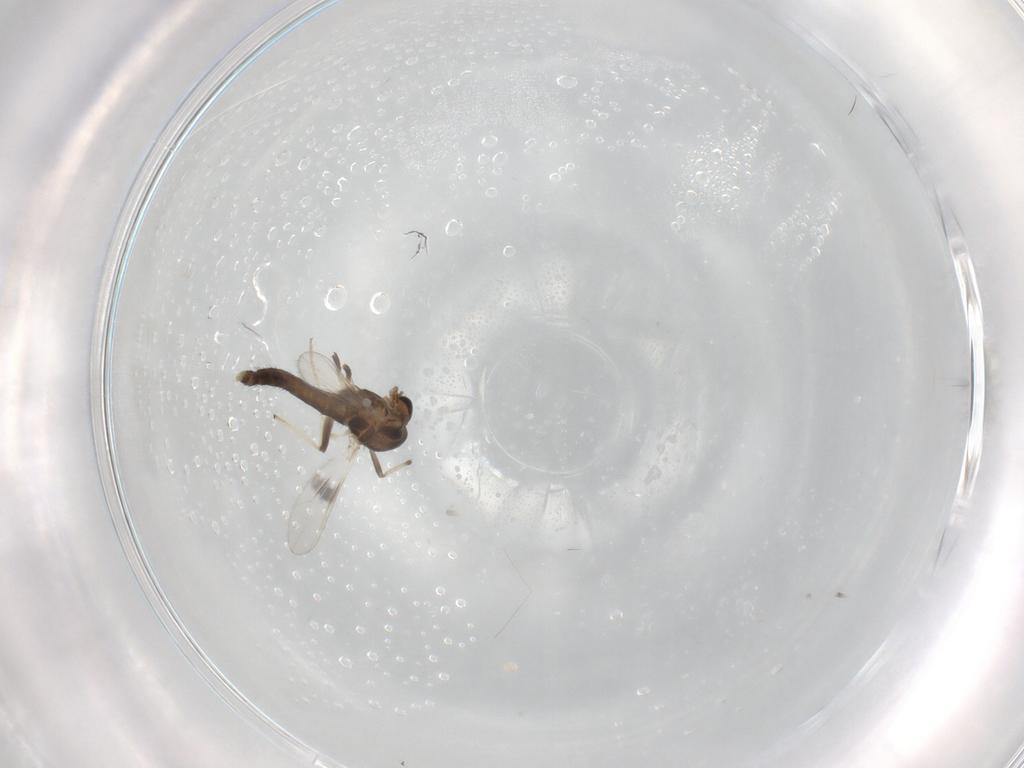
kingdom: Animalia
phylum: Arthropoda
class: Insecta
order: Diptera
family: Chironomidae
